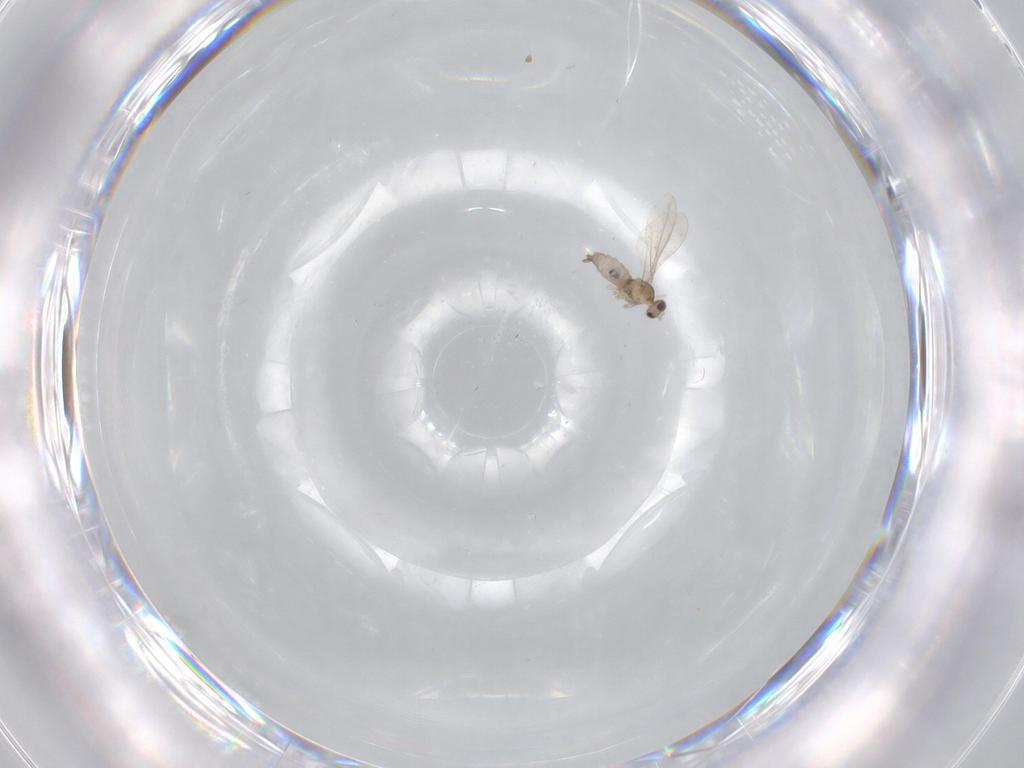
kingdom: Animalia
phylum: Arthropoda
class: Insecta
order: Diptera
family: Cecidomyiidae
